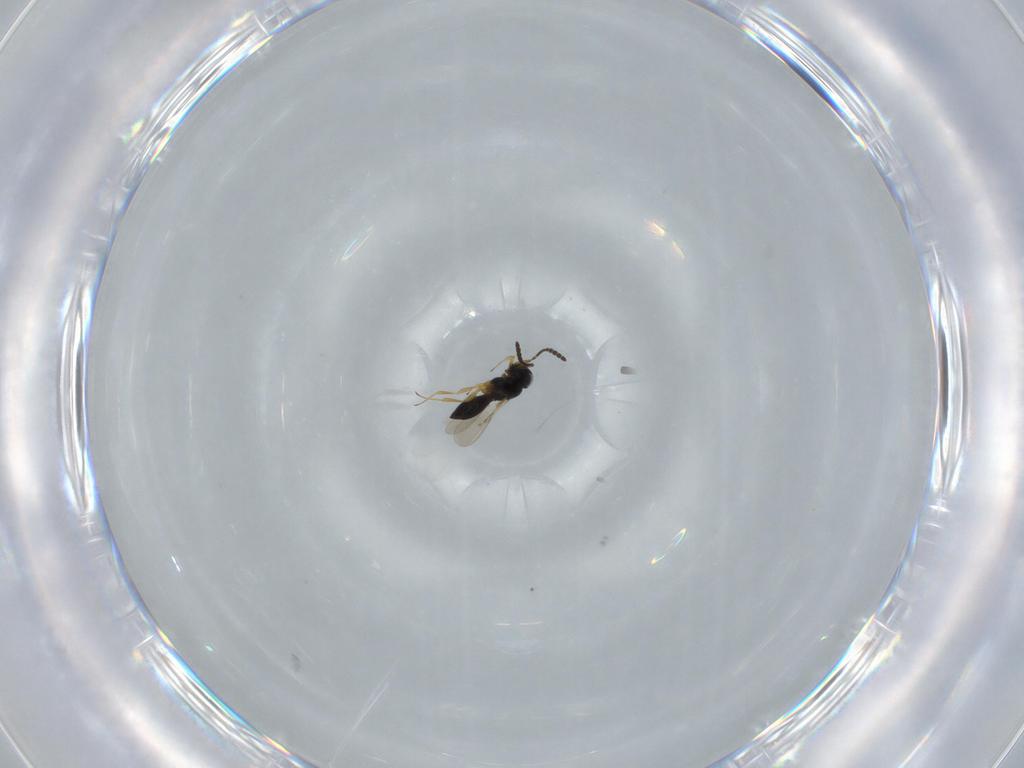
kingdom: Animalia
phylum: Arthropoda
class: Insecta
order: Hymenoptera
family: Scelionidae
